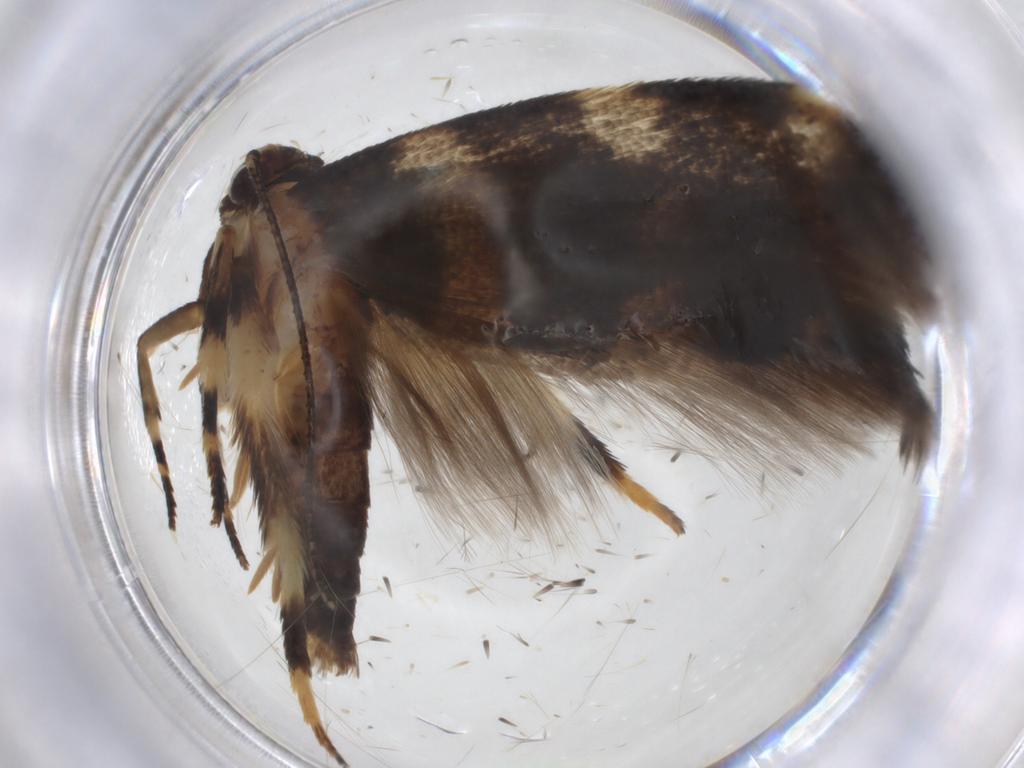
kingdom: Animalia
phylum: Arthropoda
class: Insecta
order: Lepidoptera
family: Cosmopterigidae
